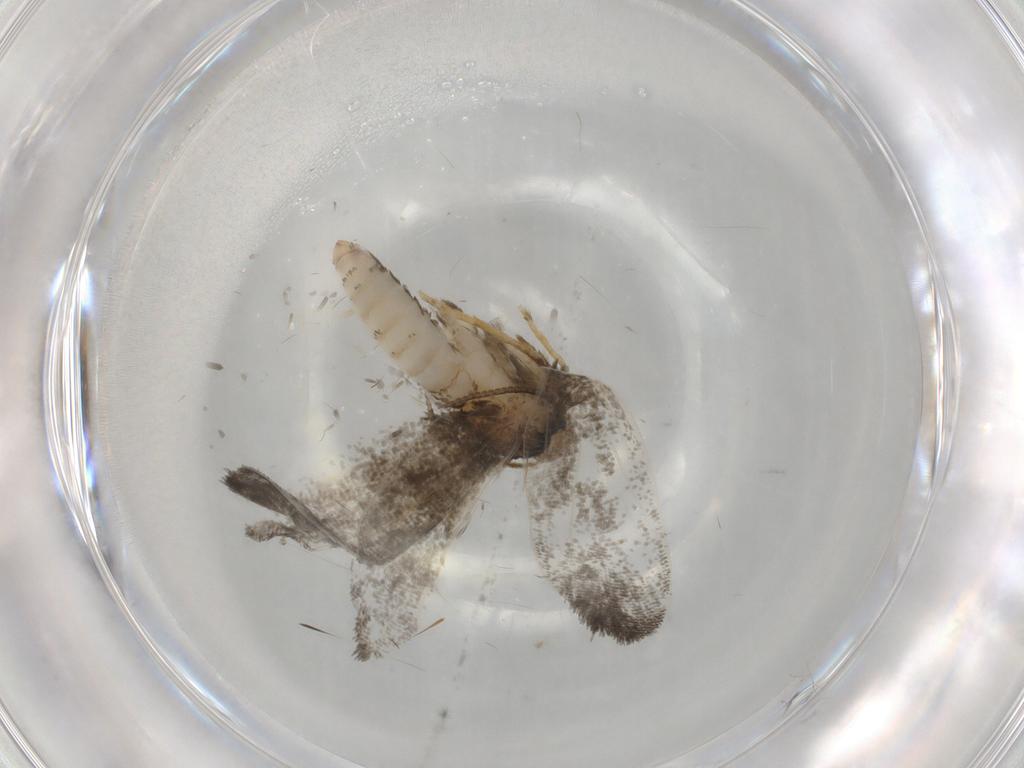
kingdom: Animalia
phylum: Arthropoda
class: Insecta
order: Lepidoptera
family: Psychidae
